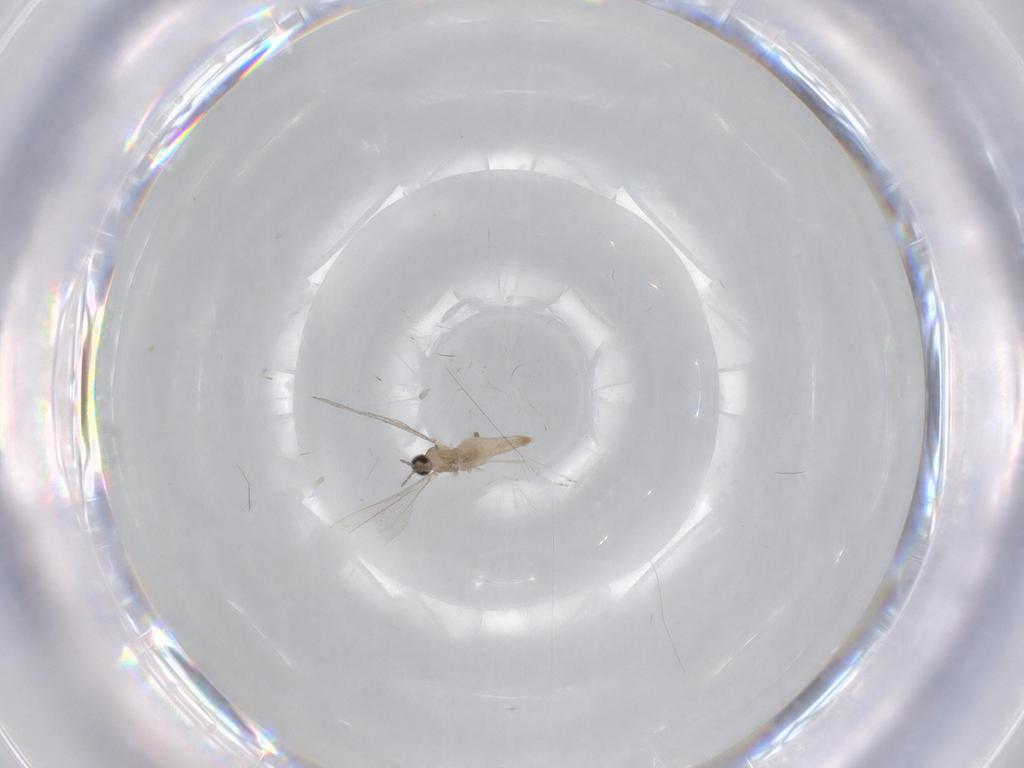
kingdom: Animalia
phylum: Arthropoda
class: Insecta
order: Diptera
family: Cecidomyiidae
